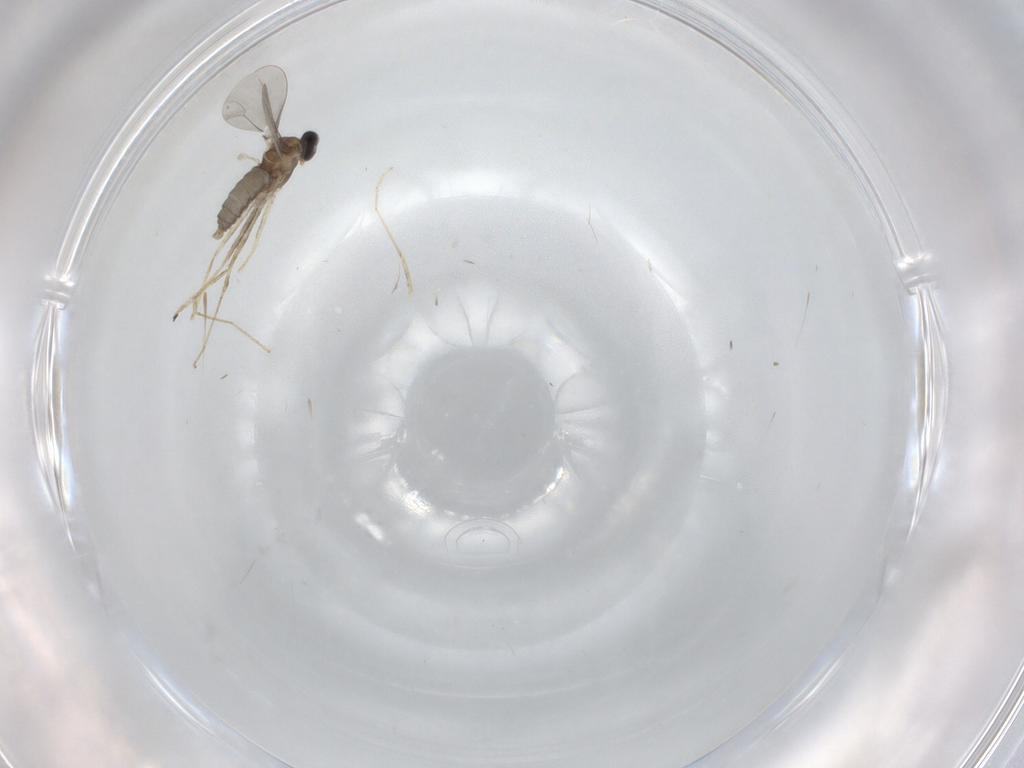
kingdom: Animalia
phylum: Arthropoda
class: Insecta
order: Diptera
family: Cecidomyiidae
